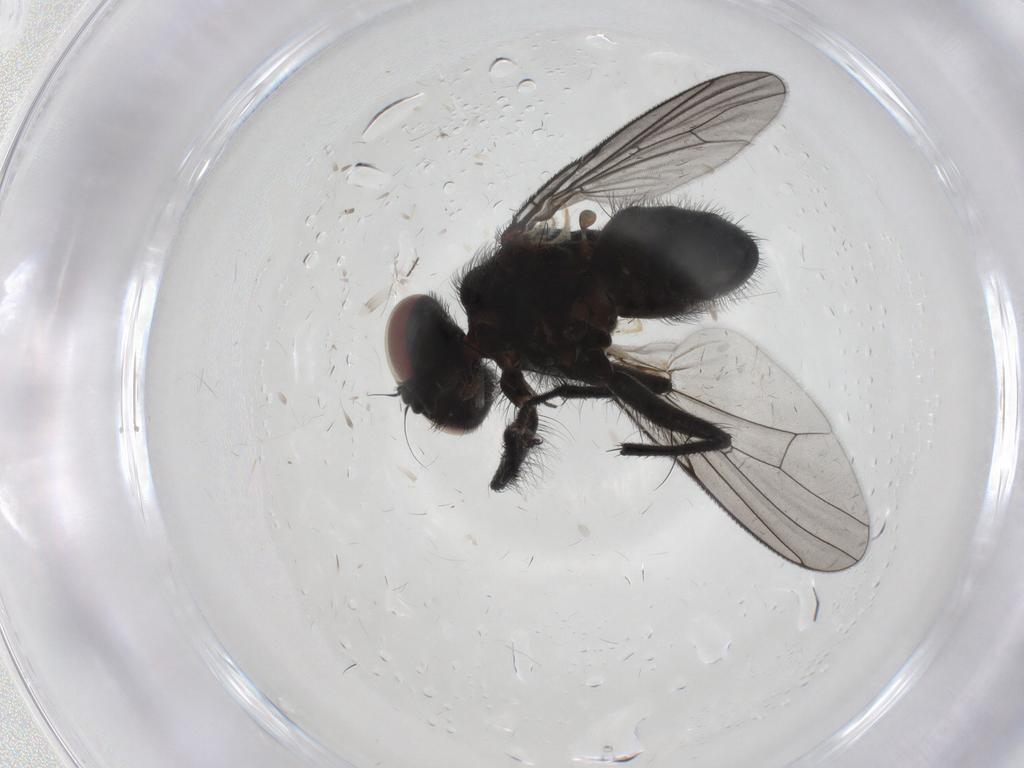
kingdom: Animalia
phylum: Arthropoda
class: Insecta
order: Diptera
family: Muscidae
